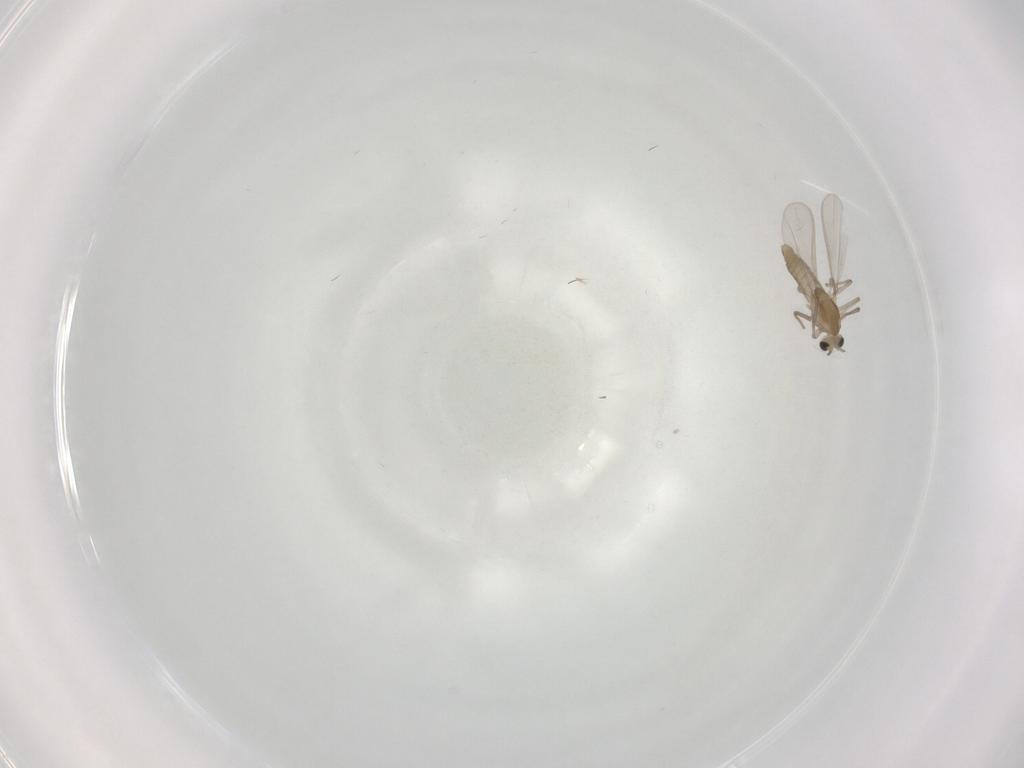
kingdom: Animalia
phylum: Arthropoda
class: Insecta
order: Diptera
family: Chironomidae
